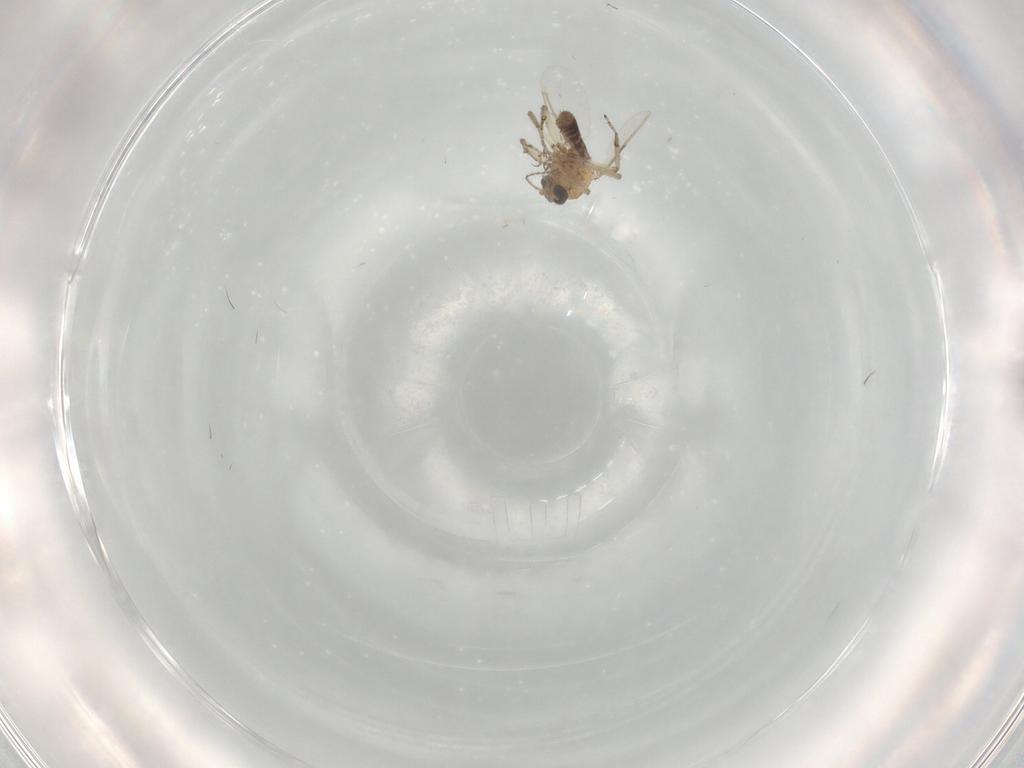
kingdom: Animalia
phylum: Arthropoda
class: Insecta
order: Diptera
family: Ceratopogonidae
